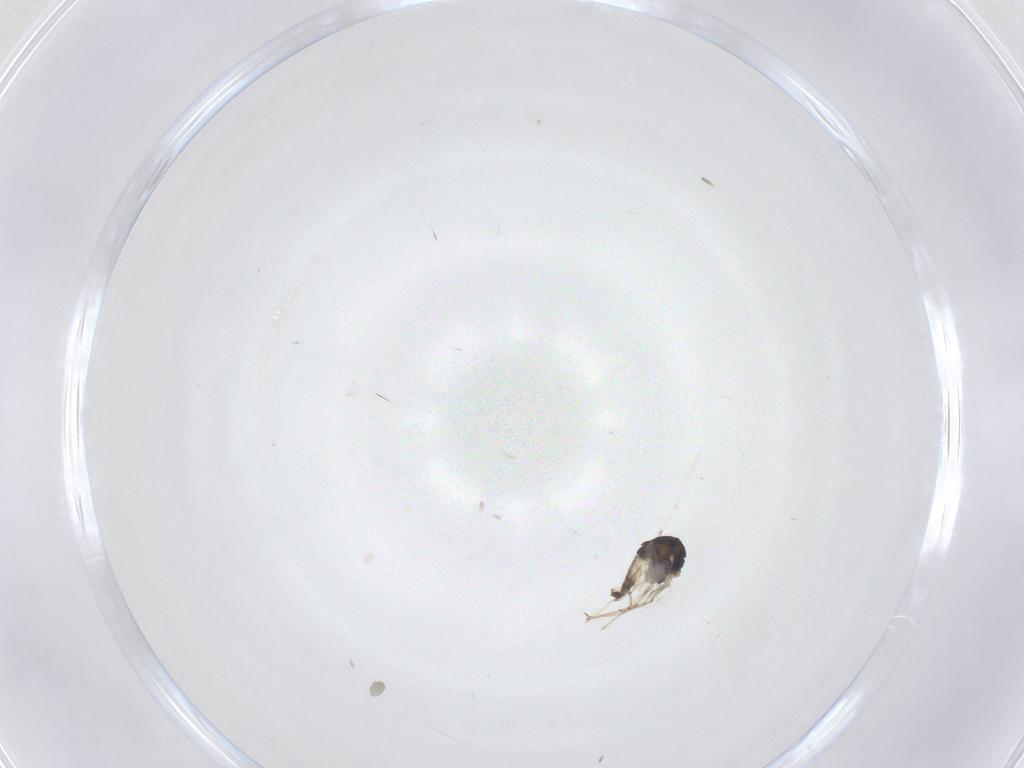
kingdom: Animalia
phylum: Arthropoda
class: Insecta
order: Diptera
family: Chironomidae
